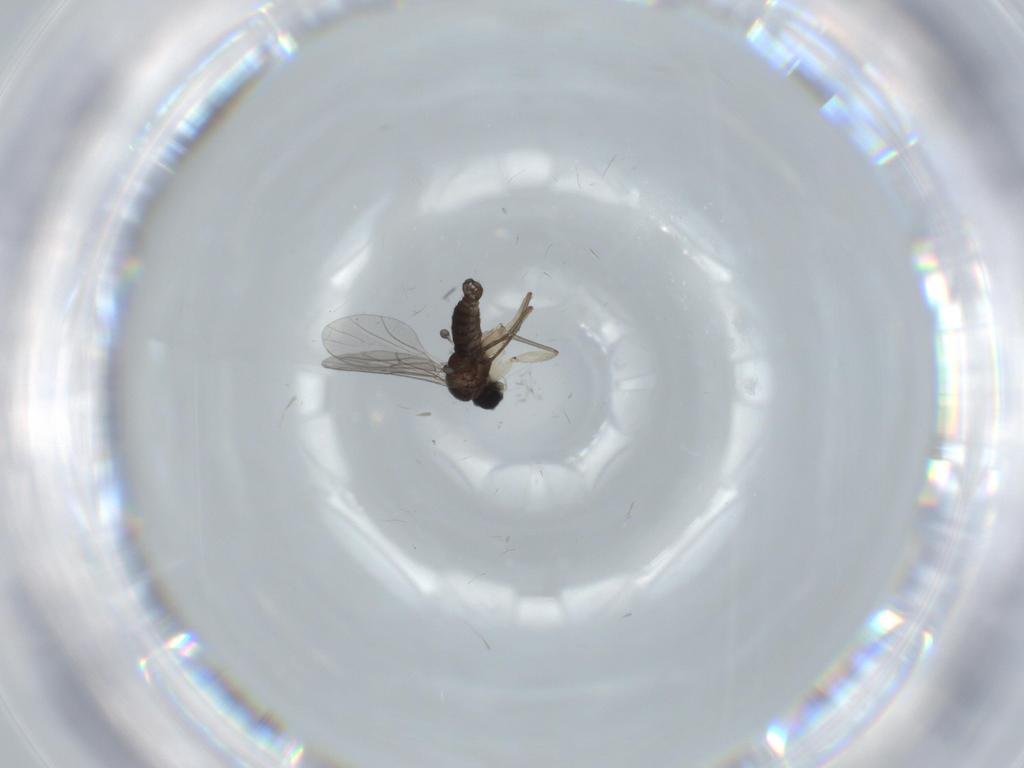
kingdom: Animalia
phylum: Arthropoda
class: Insecta
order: Diptera
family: Sciaridae
